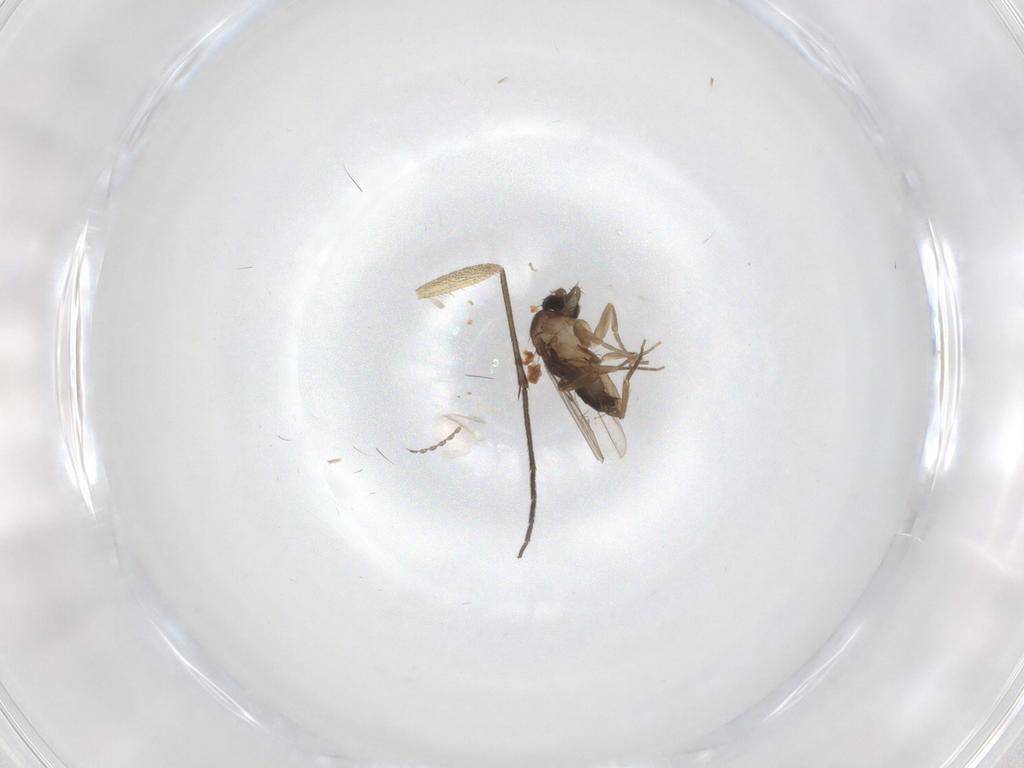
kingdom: Animalia
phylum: Arthropoda
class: Insecta
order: Diptera
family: Phoridae
